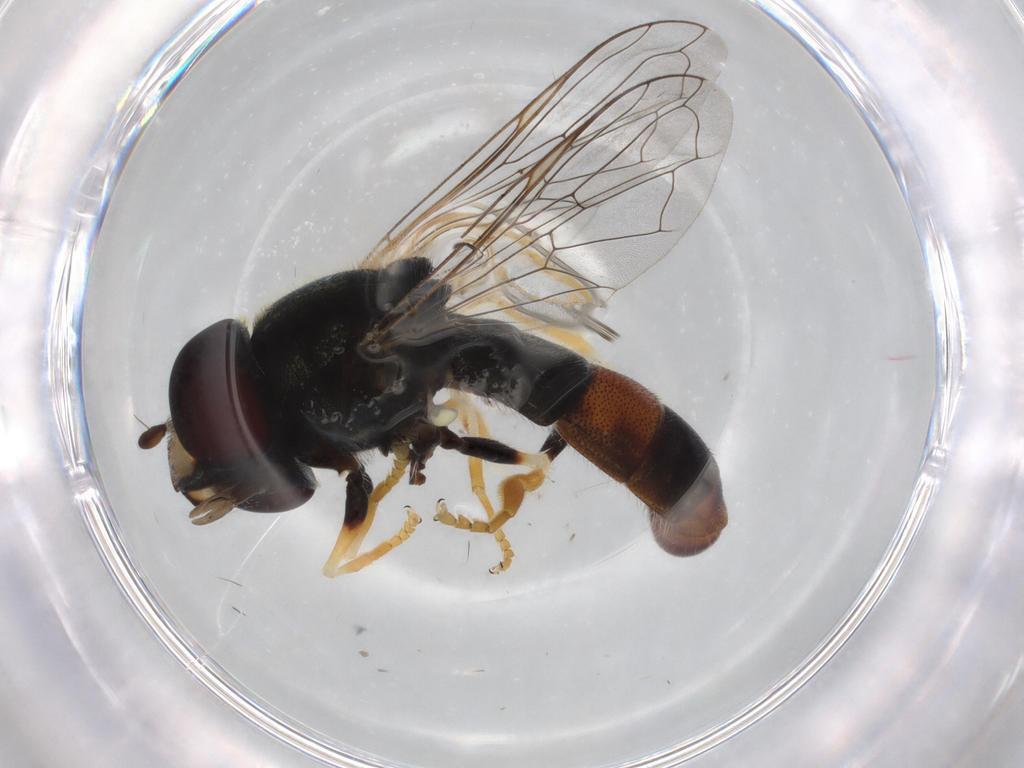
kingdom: Animalia
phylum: Arthropoda
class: Insecta
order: Diptera
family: Syrphidae
